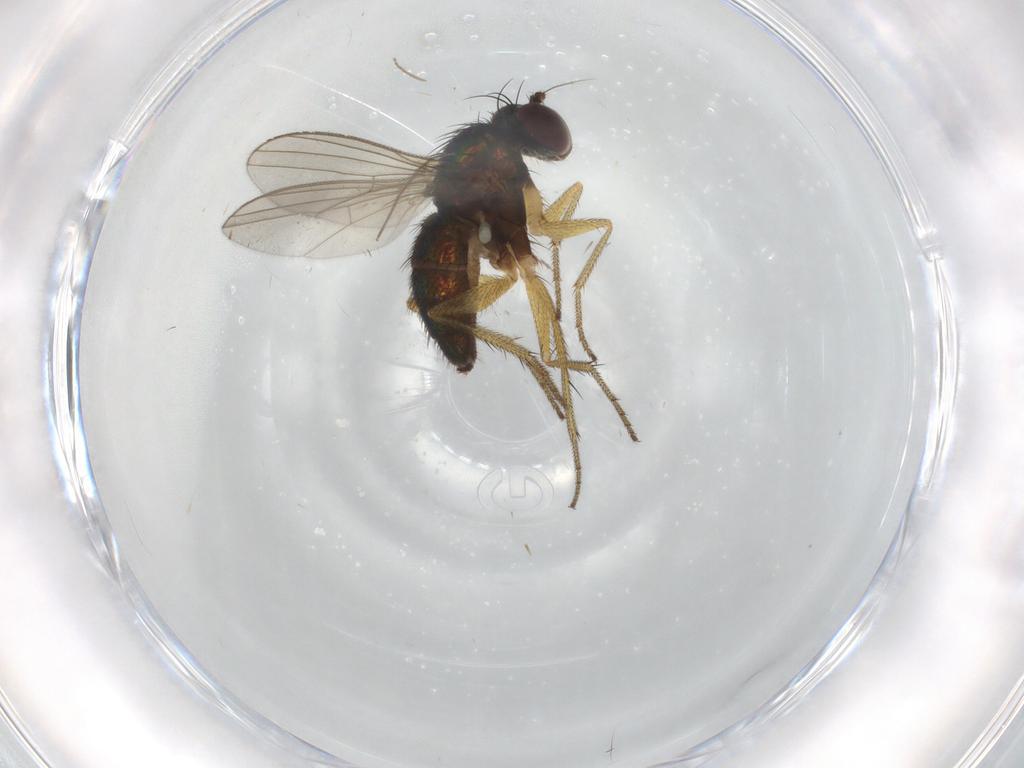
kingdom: Animalia
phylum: Arthropoda
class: Insecta
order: Diptera
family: Dolichopodidae
